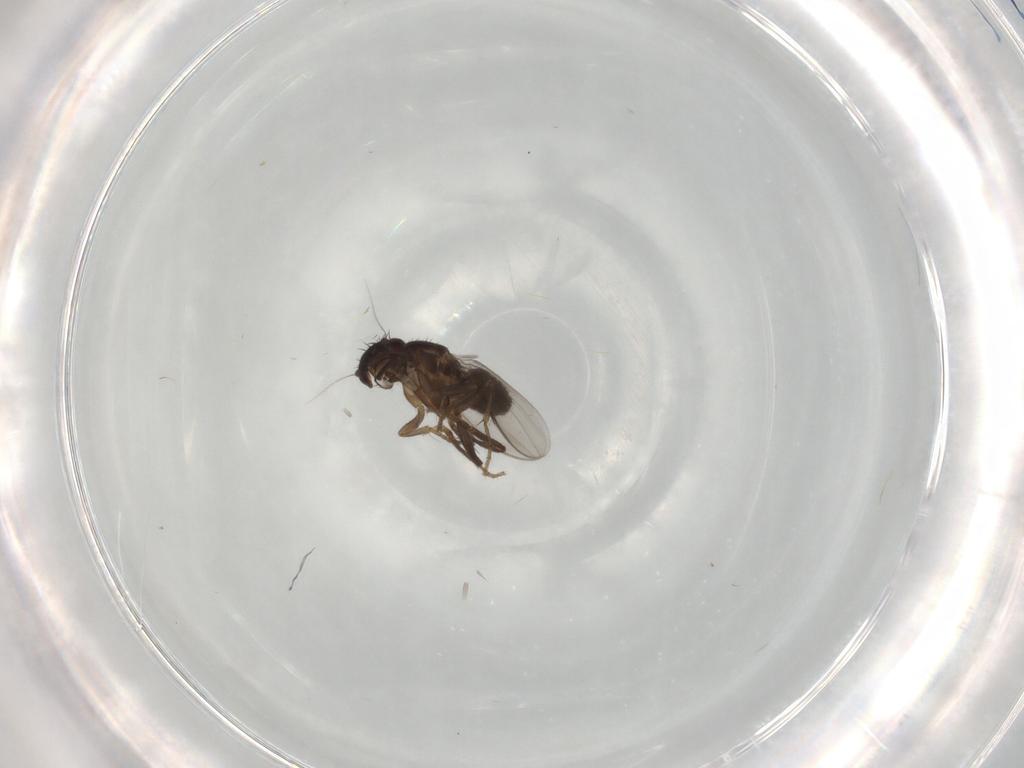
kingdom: Animalia
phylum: Arthropoda
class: Insecta
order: Diptera
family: Sphaeroceridae
